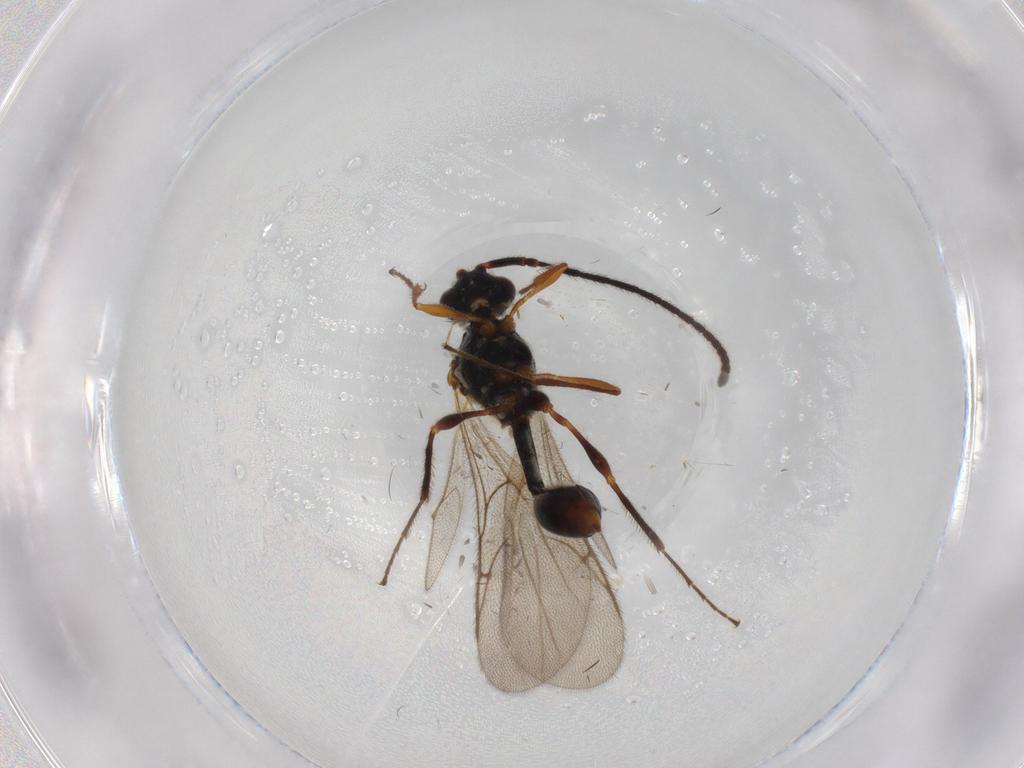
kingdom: Animalia
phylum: Arthropoda
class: Insecta
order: Hymenoptera
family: Diapriidae
